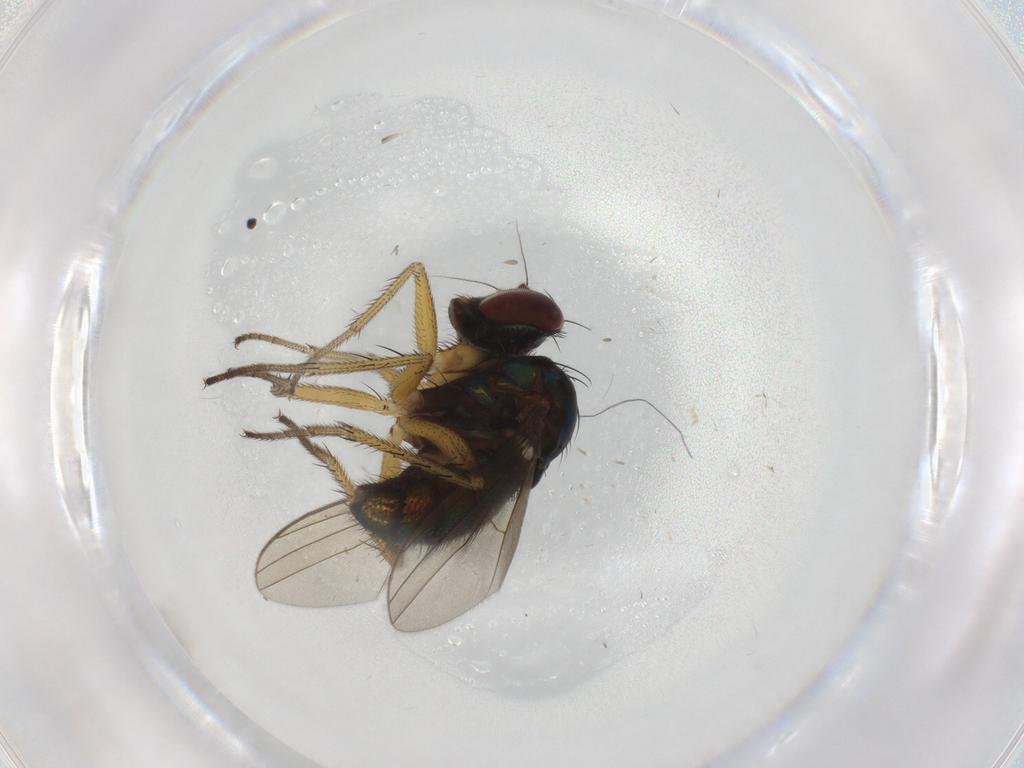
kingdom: Animalia
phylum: Arthropoda
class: Insecta
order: Diptera
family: Dolichopodidae
